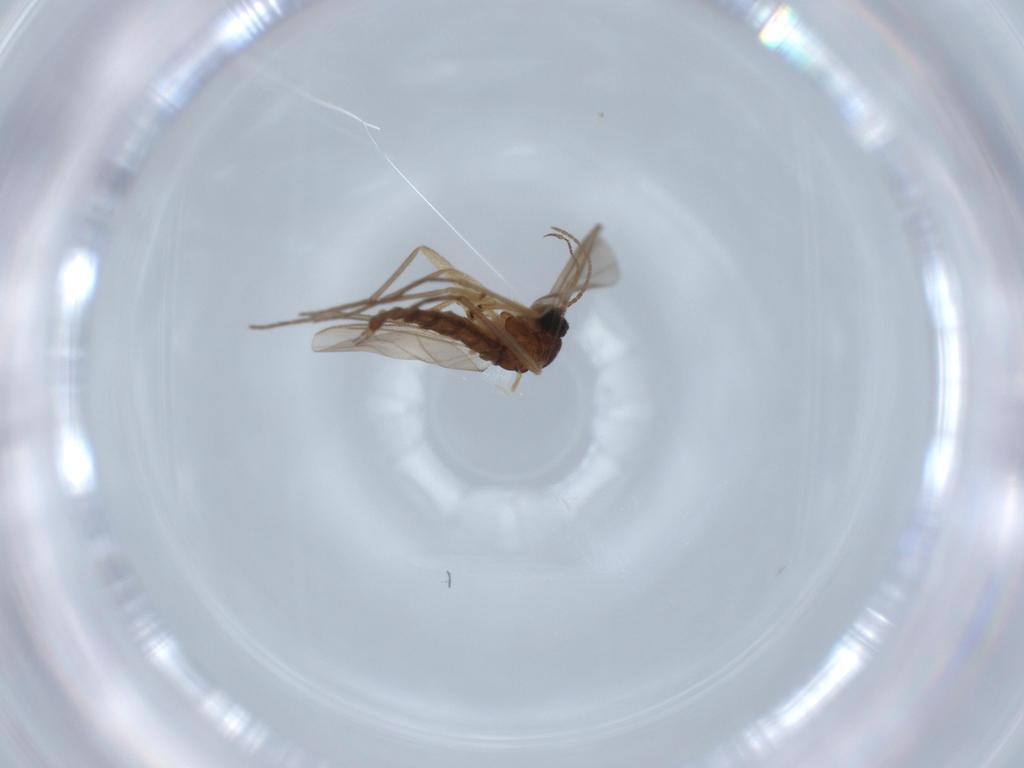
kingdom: Animalia
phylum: Arthropoda
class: Insecta
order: Diptera
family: Sciaridae
